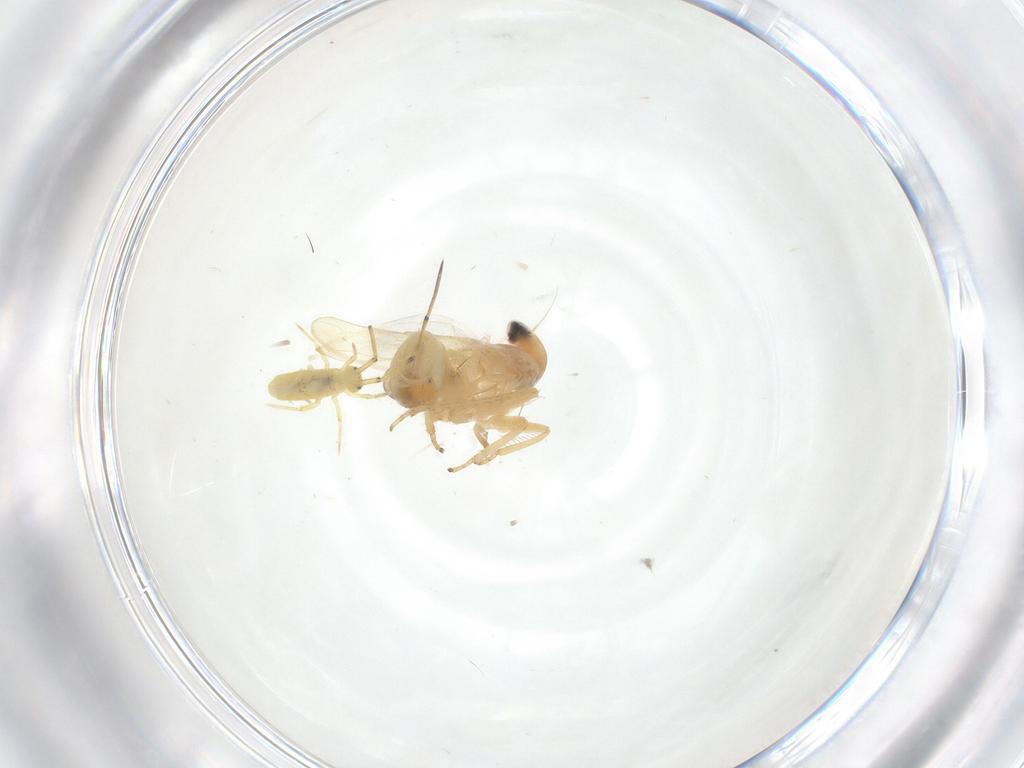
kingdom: Animalia
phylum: Arthropoda
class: Insecta
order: Hemiptera
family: Cicadellidae
